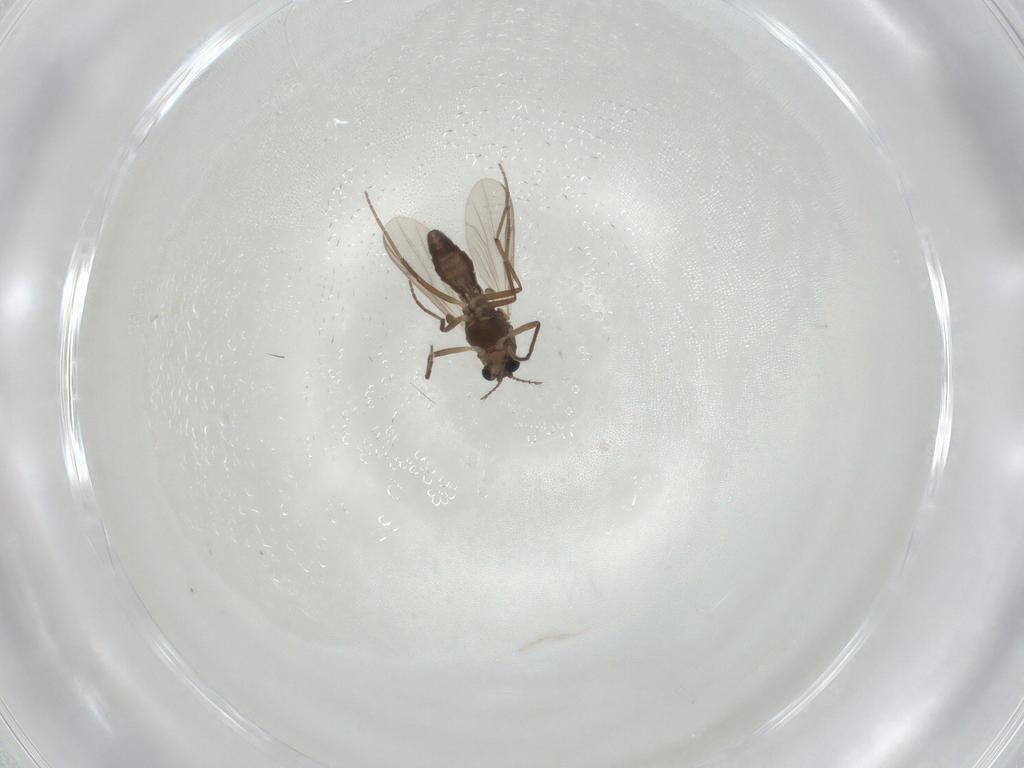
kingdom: Animalia
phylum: Arthropoda
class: Insecta
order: Diptera
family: Chironomidae
